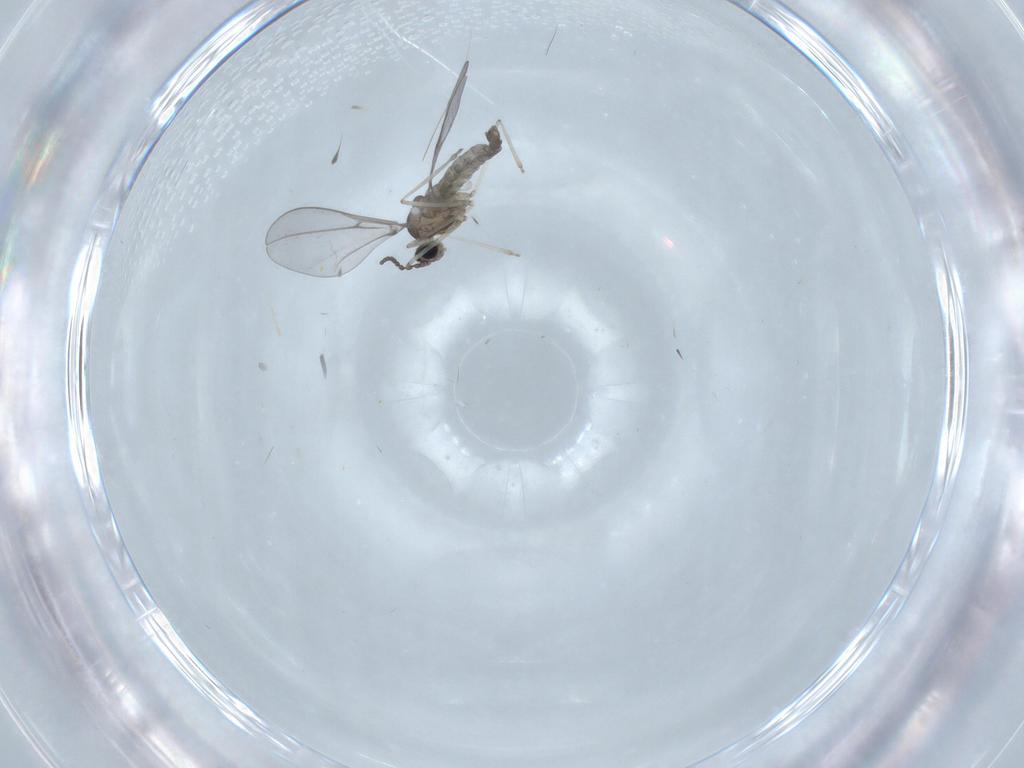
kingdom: Animalia
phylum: Arthropoda
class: Insecta
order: Diptera
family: Cecidomyiidae
